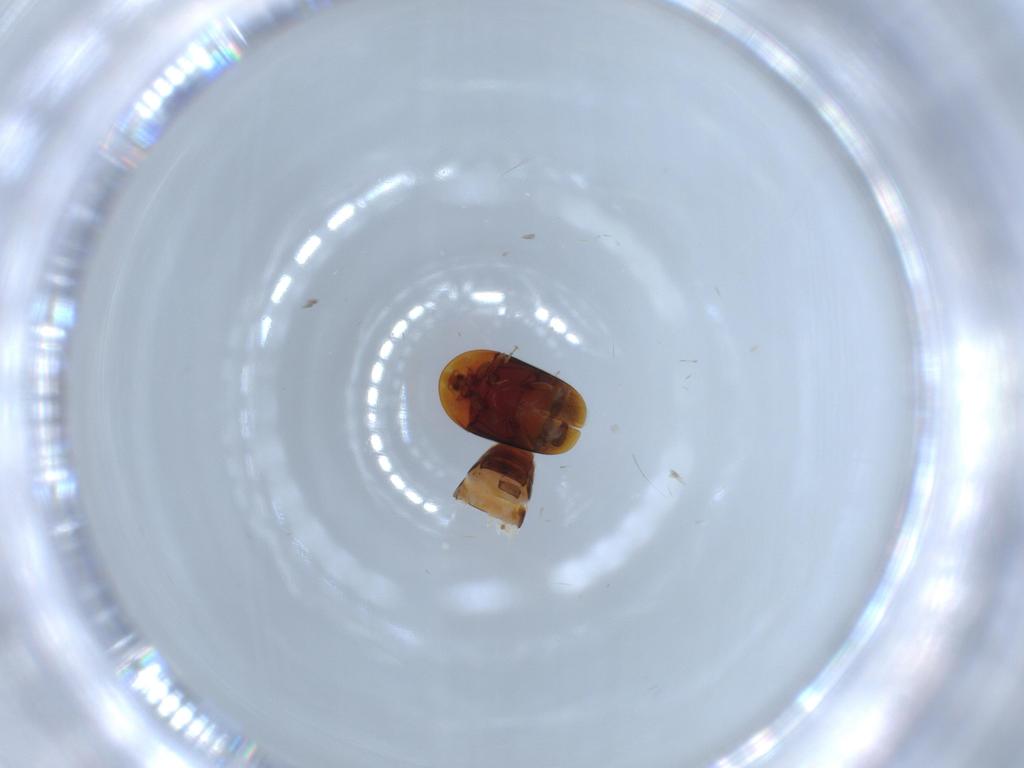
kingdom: Animalia
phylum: Arthropoda
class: Insecta
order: Coleoptera
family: Corylophidae
